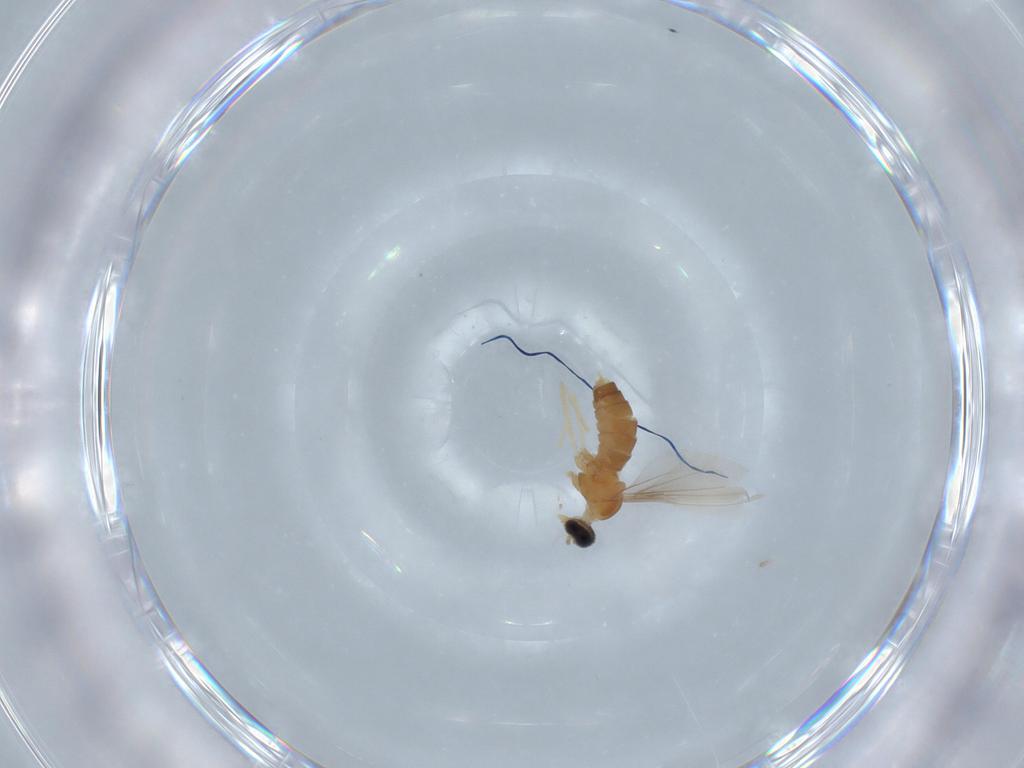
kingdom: Animalia
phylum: Arthropoda
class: Insecta
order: Diptera
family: Cecidomyiidae
